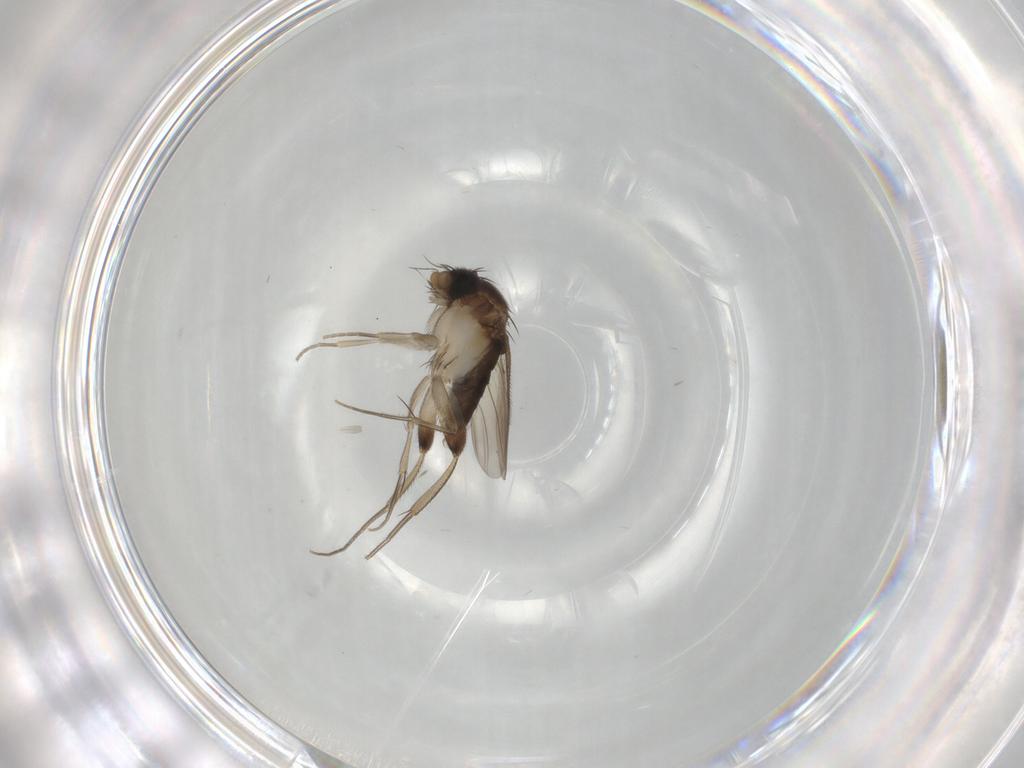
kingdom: Animalia
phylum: Arthropoda
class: Insecta
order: Diptera
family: Phoridae
